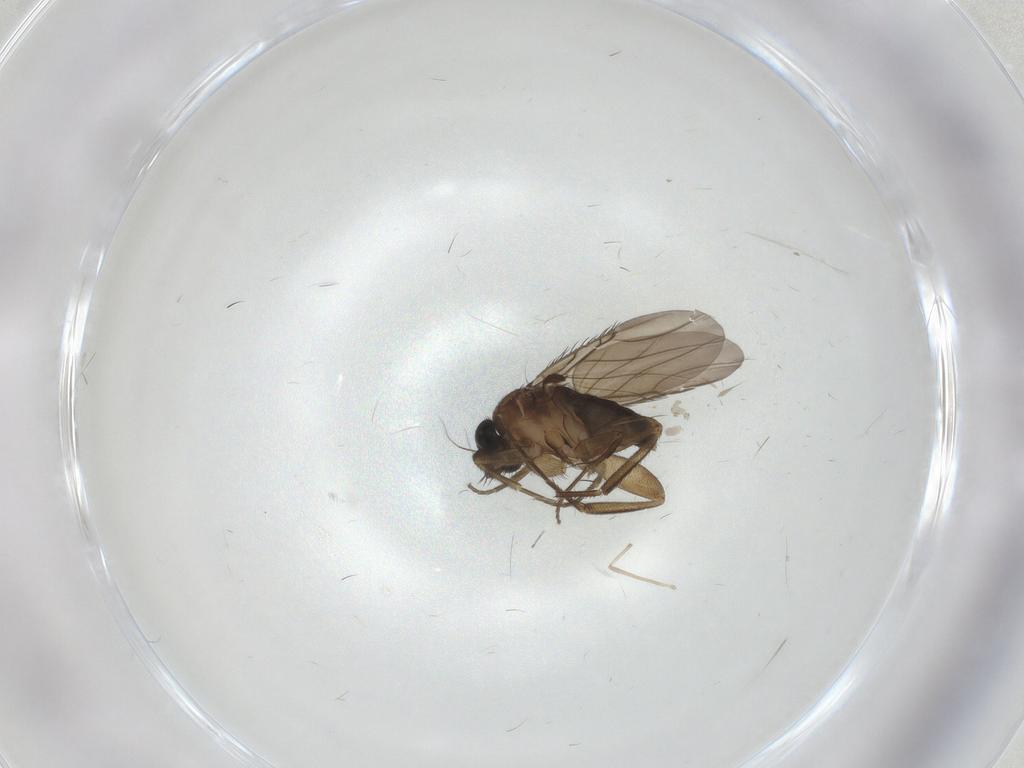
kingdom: Animalia
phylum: Arthropoda
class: Insecta
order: Diptera
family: Phoridae
